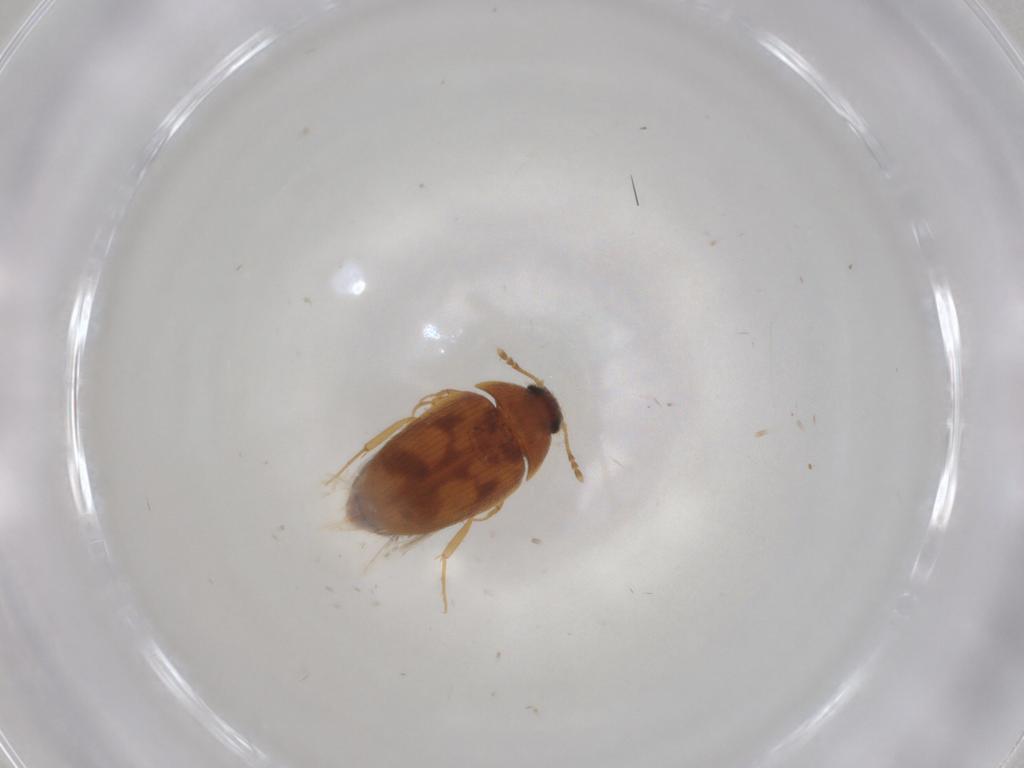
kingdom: Animalia
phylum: Arthropoda
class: Insecta
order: Coleoptera
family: Mycetophagidae
